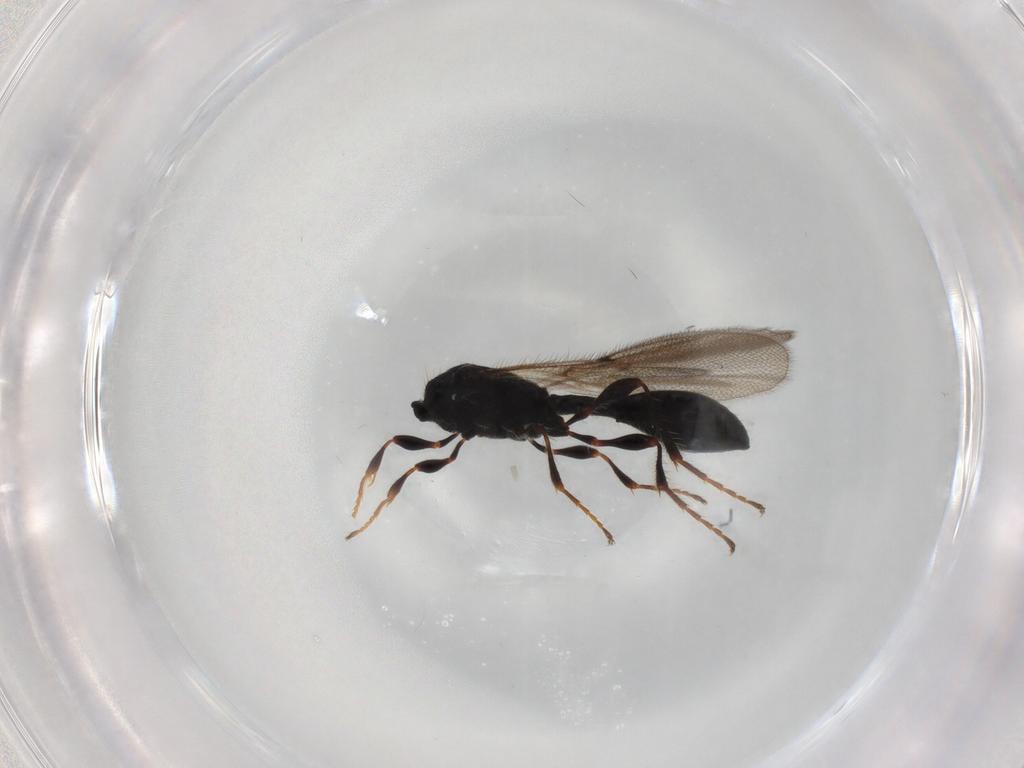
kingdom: Animalia
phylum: Arthropoda
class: Insecta
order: Hymenoptera
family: Diapriidae
